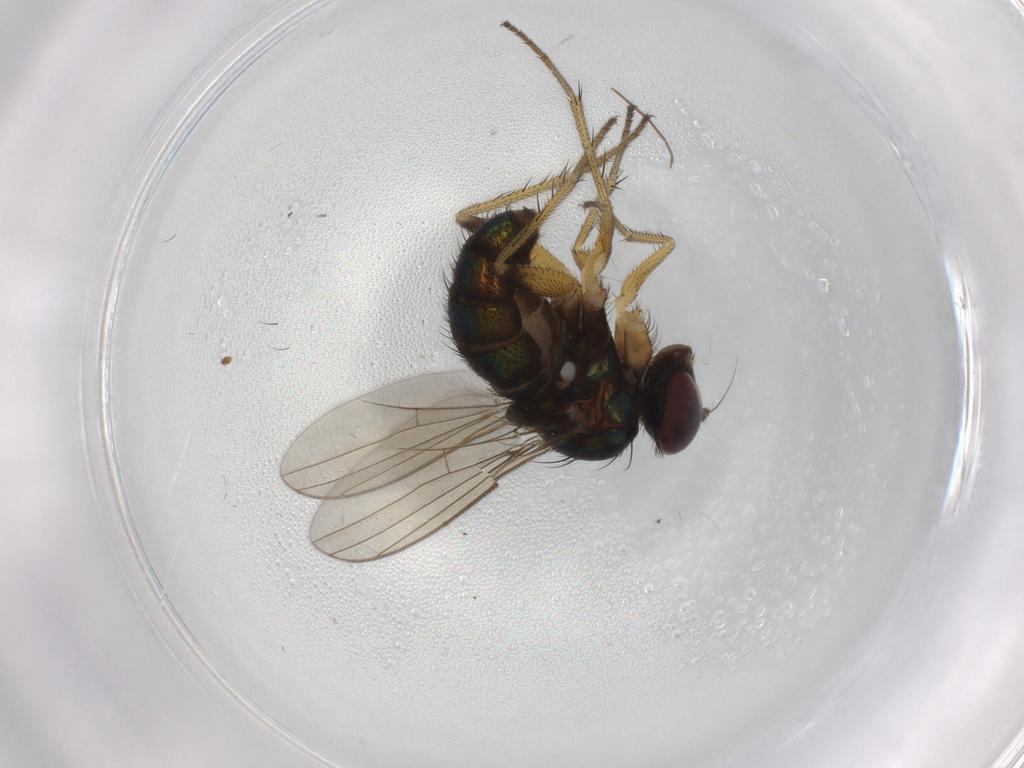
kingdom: Animalia
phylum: Arthropoda
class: Insecta
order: Diptera
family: Dolichopodidae
